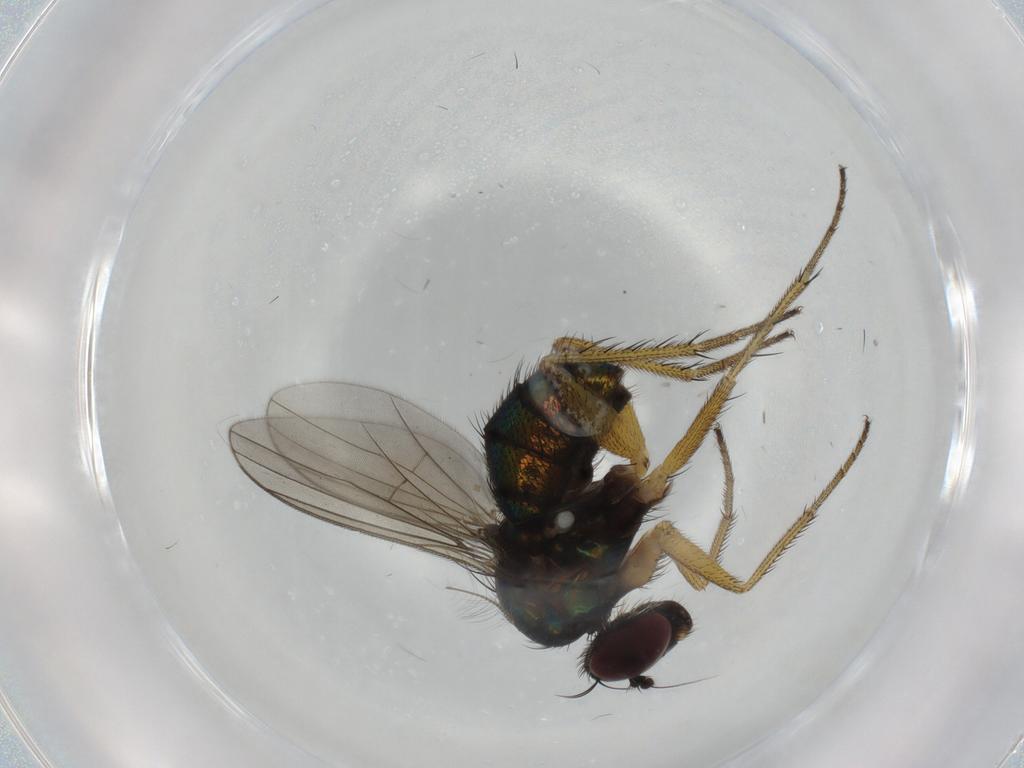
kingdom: Animalia
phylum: Arthropoda
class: Insecta
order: Diptera
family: Dolichopodidae
